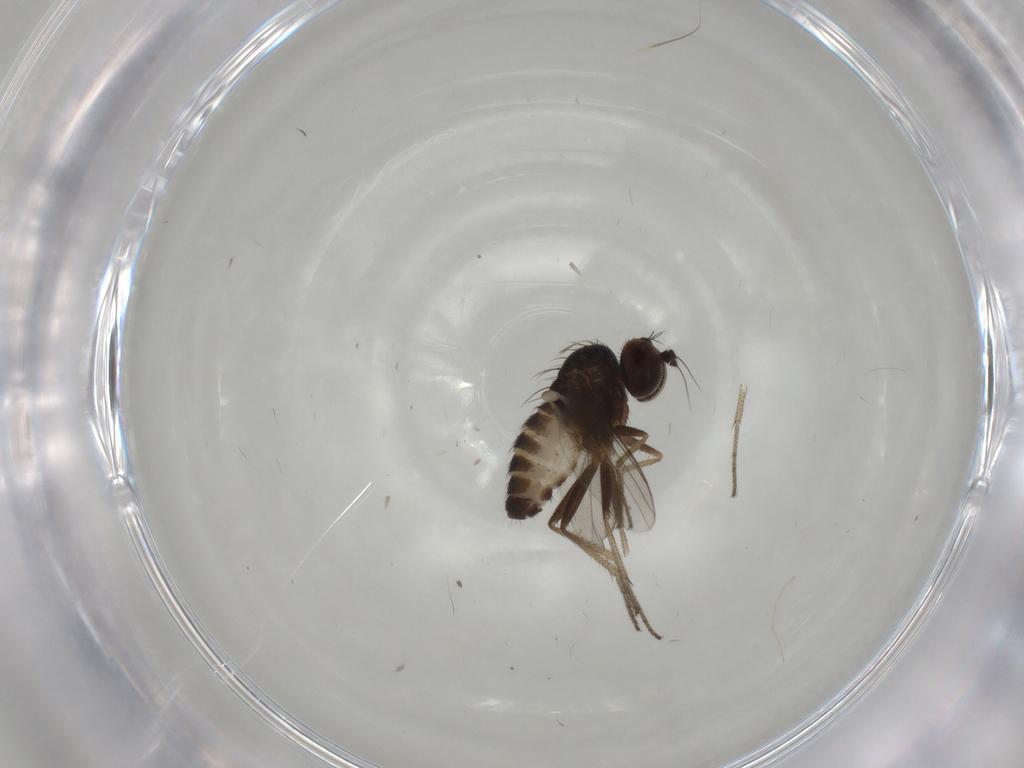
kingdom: Animalia
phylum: Arthropoda
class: Insecta
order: Diptera
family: Cecidomyiidae
